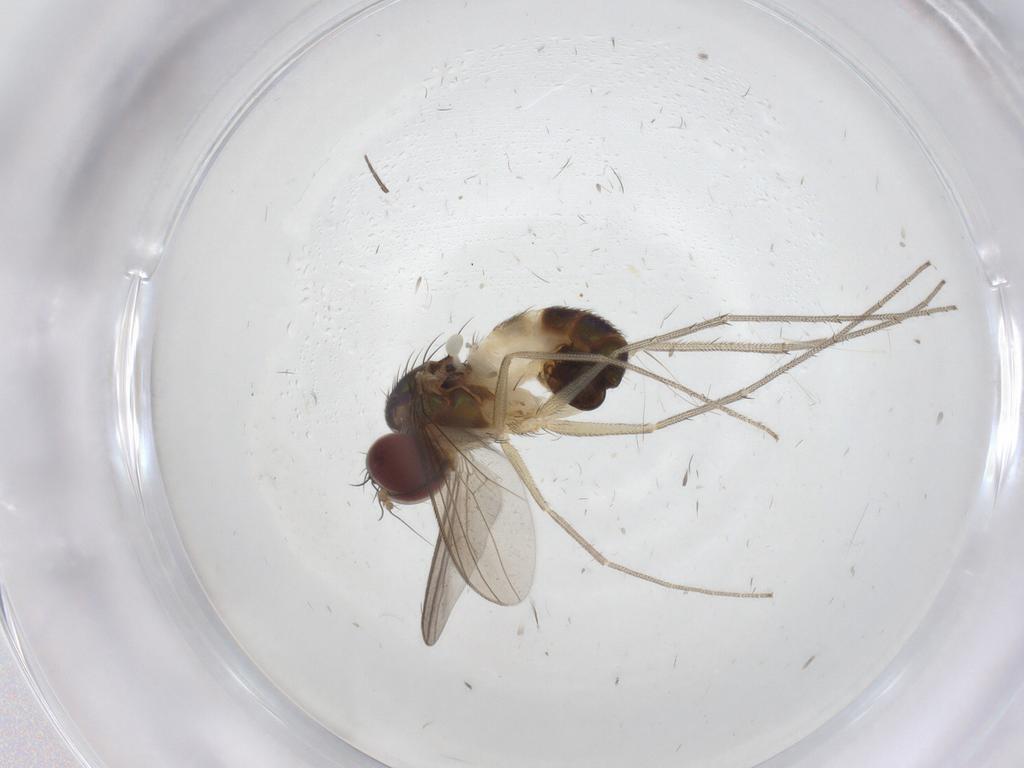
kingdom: Animalia
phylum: Arthropoda
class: Insecta
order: Diptera
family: Dolichopodidae
